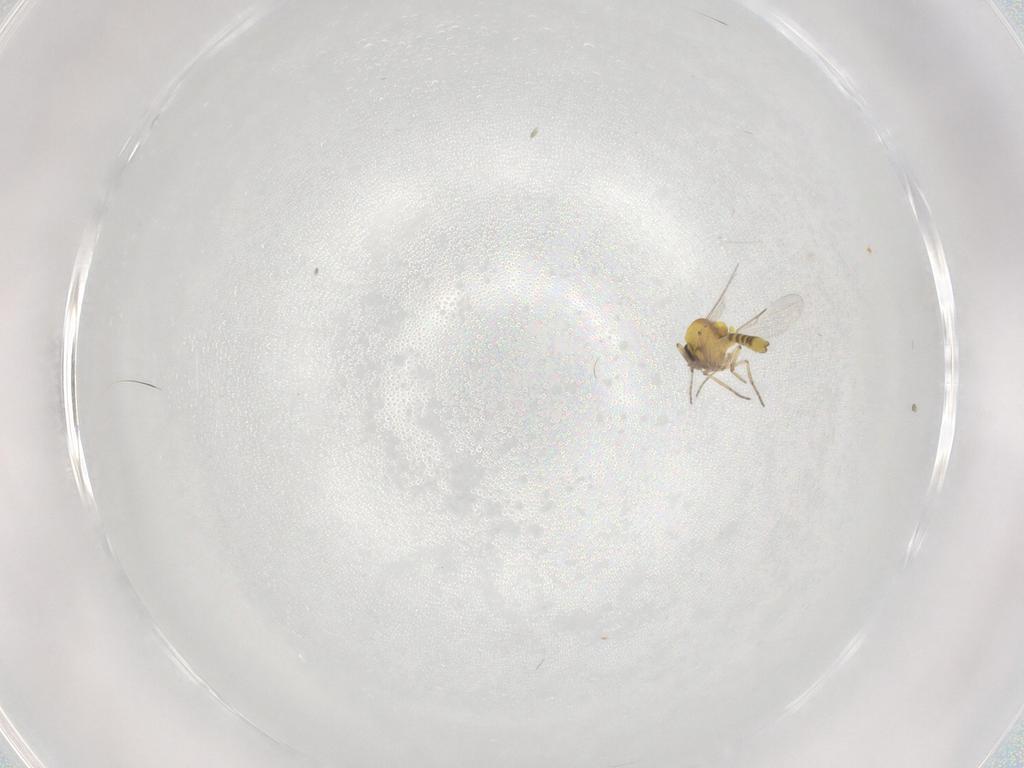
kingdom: Animalia
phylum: Arthropoda
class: Insecta
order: Diptera
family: Ceratopogonidae
